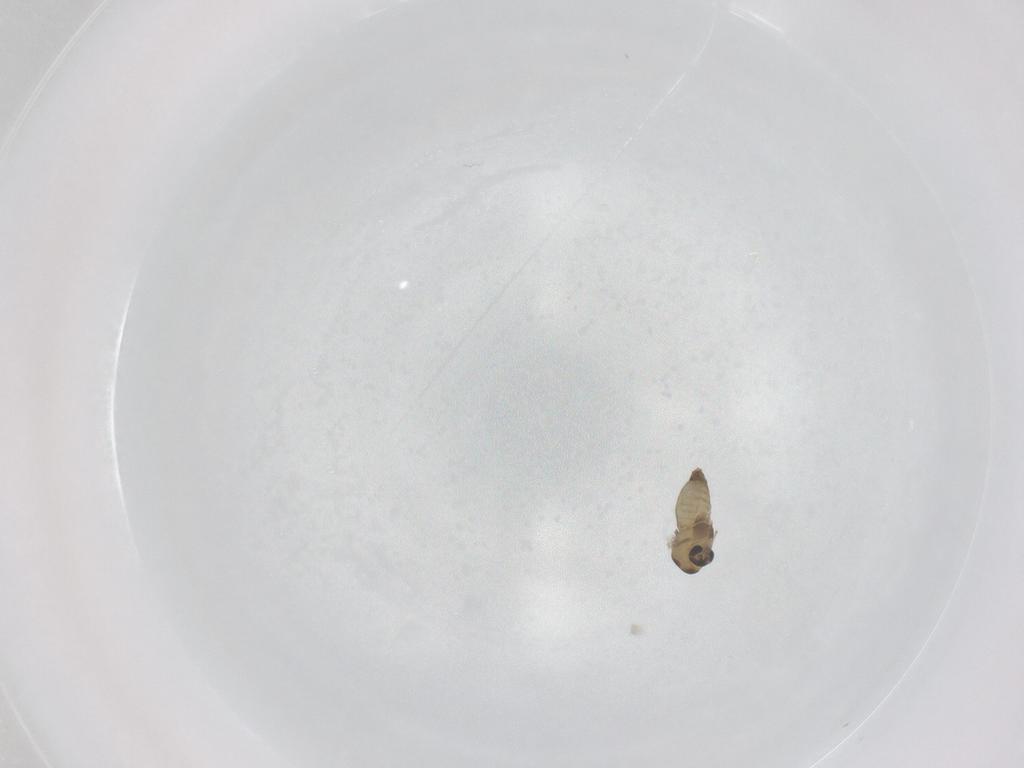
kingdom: Animalia
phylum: Arthropoda
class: Insecta
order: Diptera
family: Chironomidae
